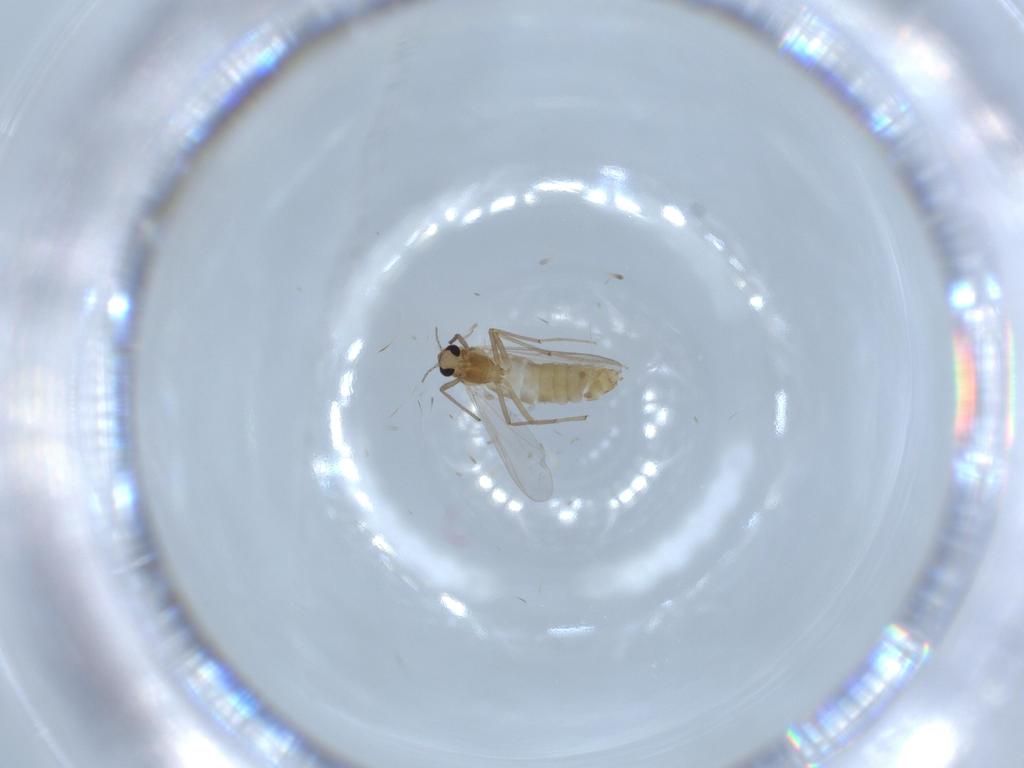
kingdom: Animalia
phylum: Arthropoda
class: Insecta
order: Diptera
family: Chironomidae
